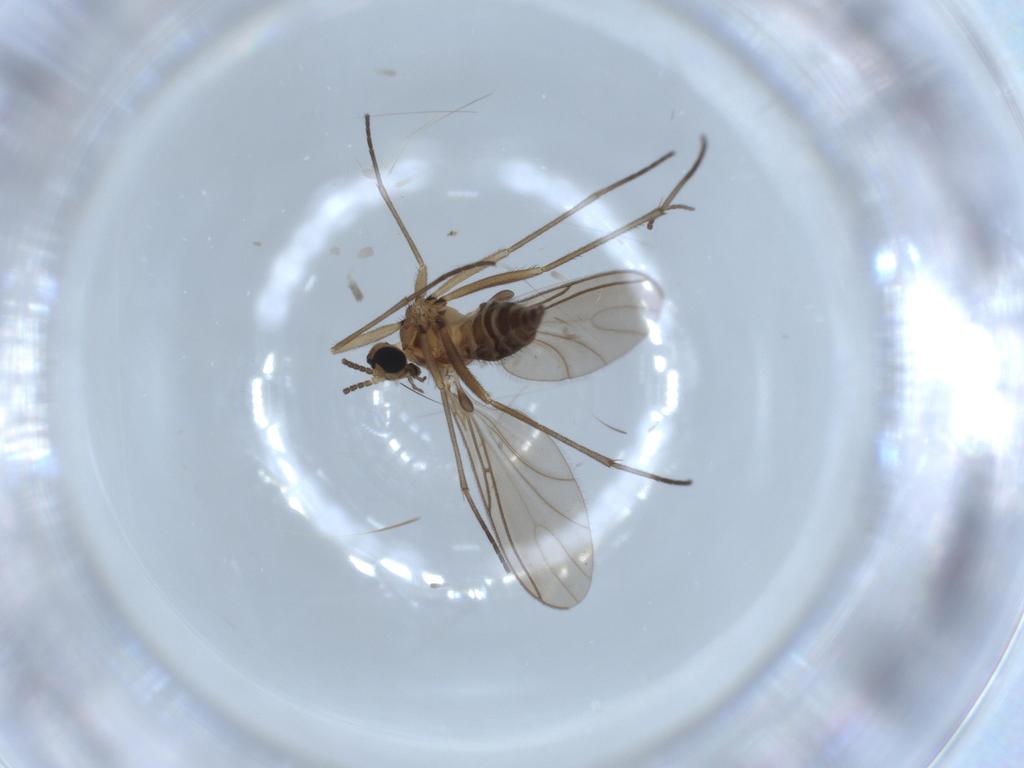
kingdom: Animalia
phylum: Arthropoda
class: Insecta
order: Diptera
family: Sciaridae
